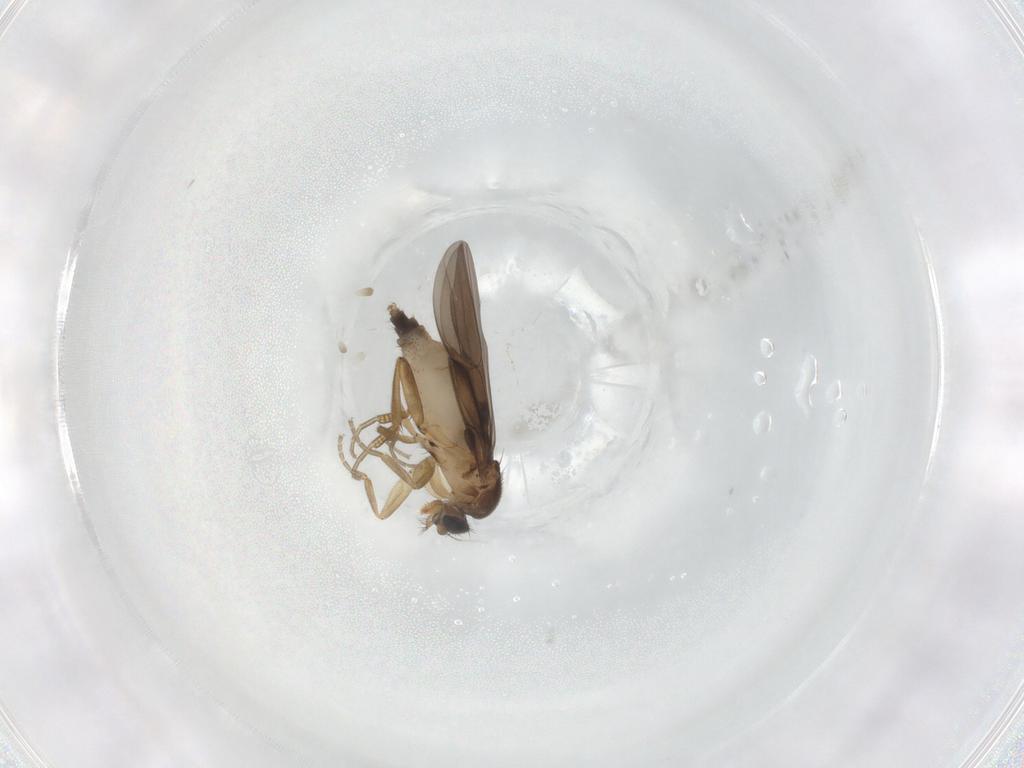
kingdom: Animalia
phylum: Arthropoda
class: Insecta
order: Diptera
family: Phoridae
